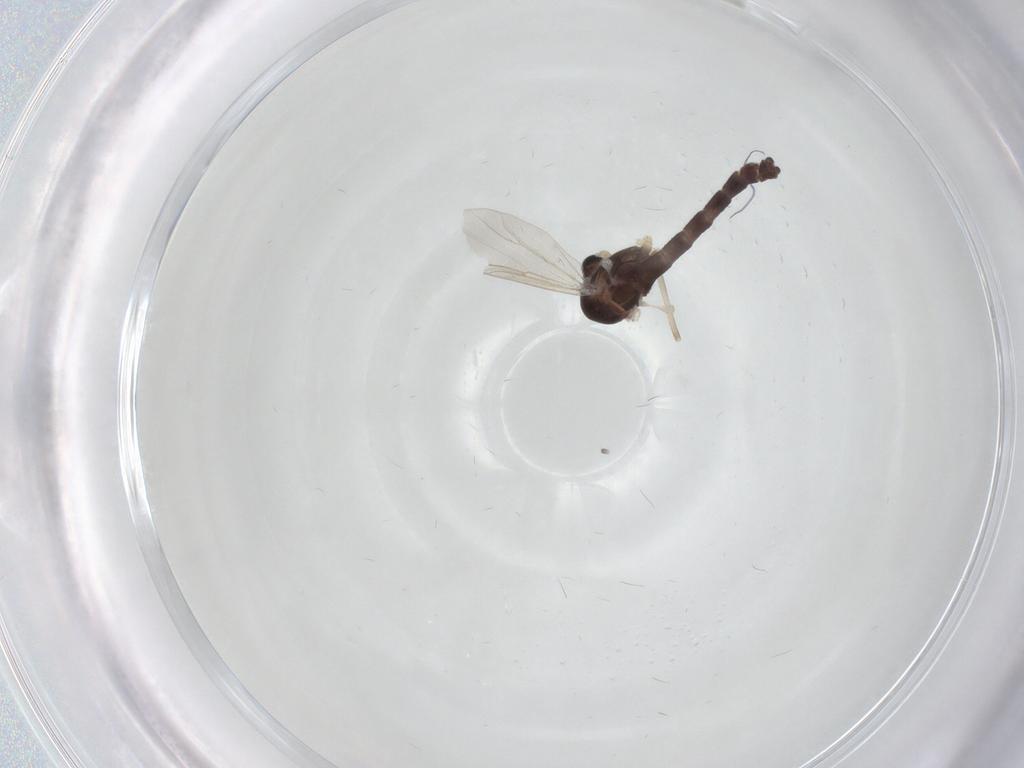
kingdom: Animalia
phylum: Arthropoda
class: Insecta
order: Diptera
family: Chironomidae
